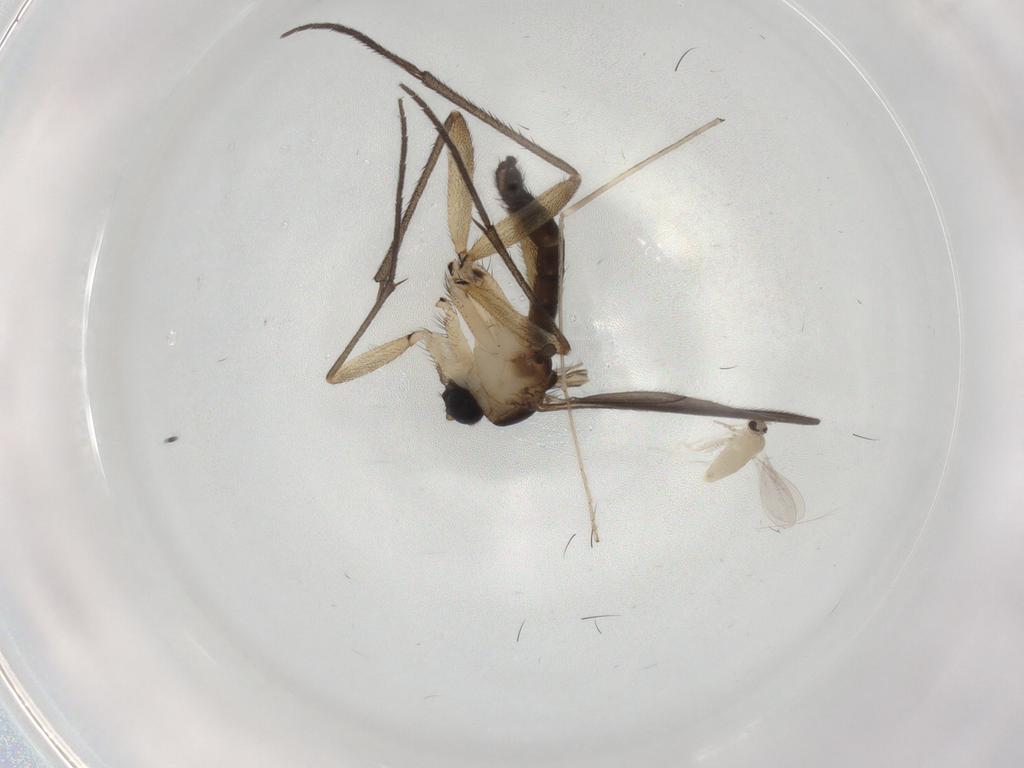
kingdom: Animalia
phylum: Arthropoda
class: Insecta
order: Diptera
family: Sciaridae
